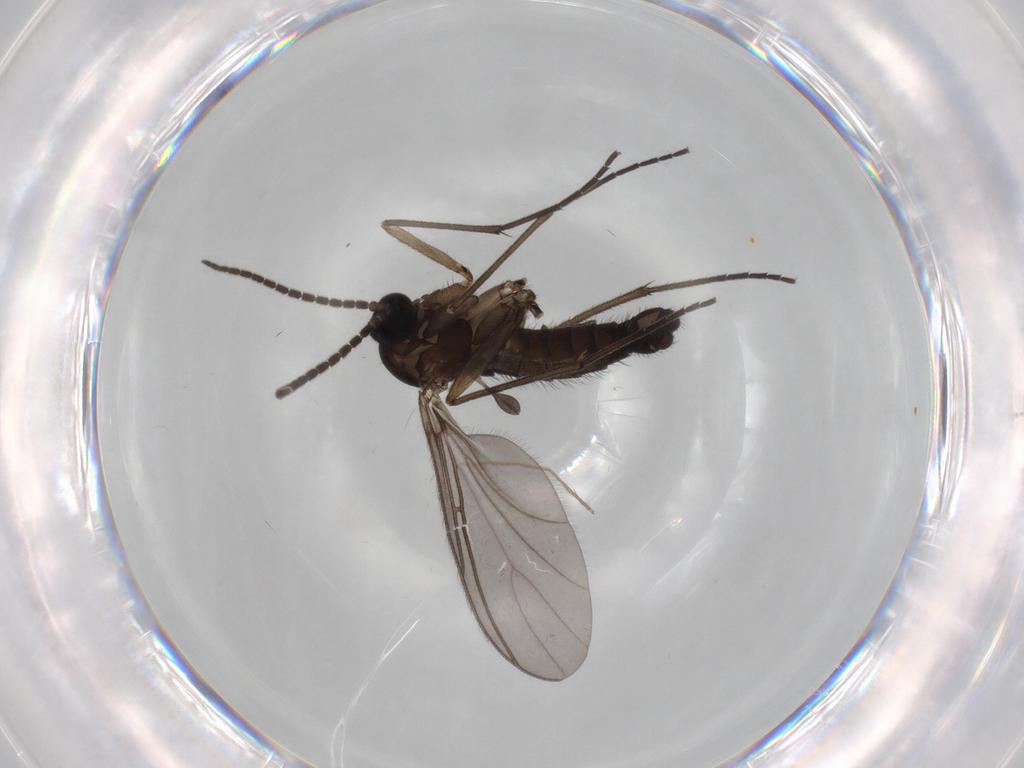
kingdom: Animalia
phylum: Arthropoda
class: Insecta
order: Diptera
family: Sciaridae
